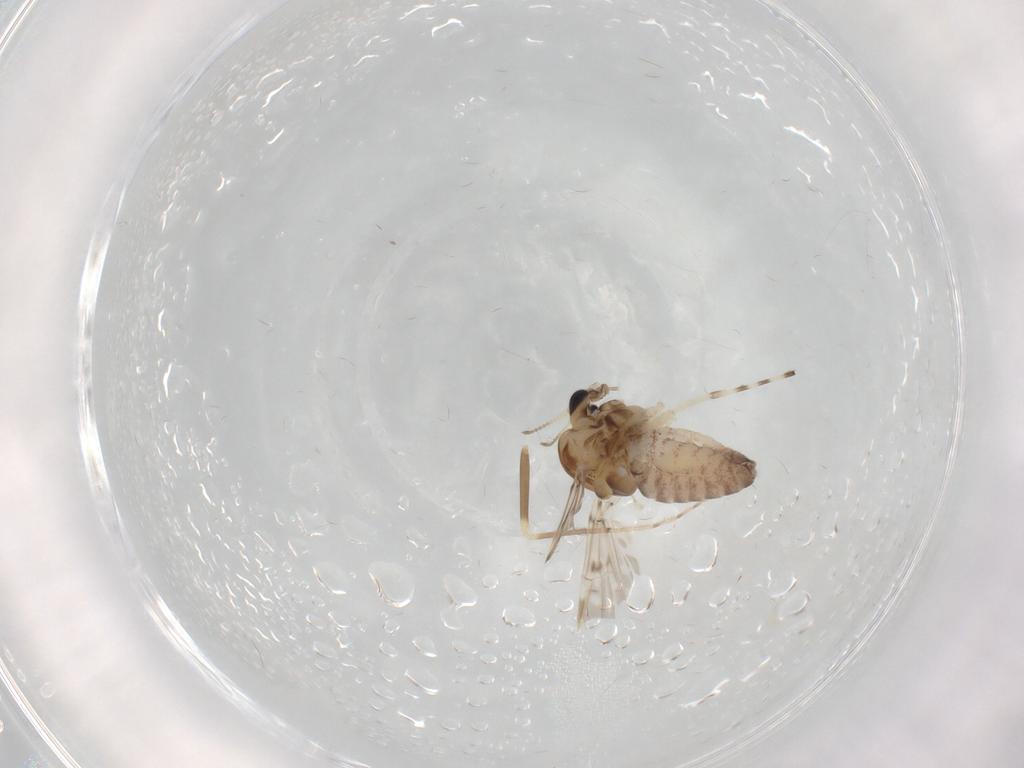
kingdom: Animalia
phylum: Arthropoda
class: Insecta
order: Diptera
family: Chironomidae
